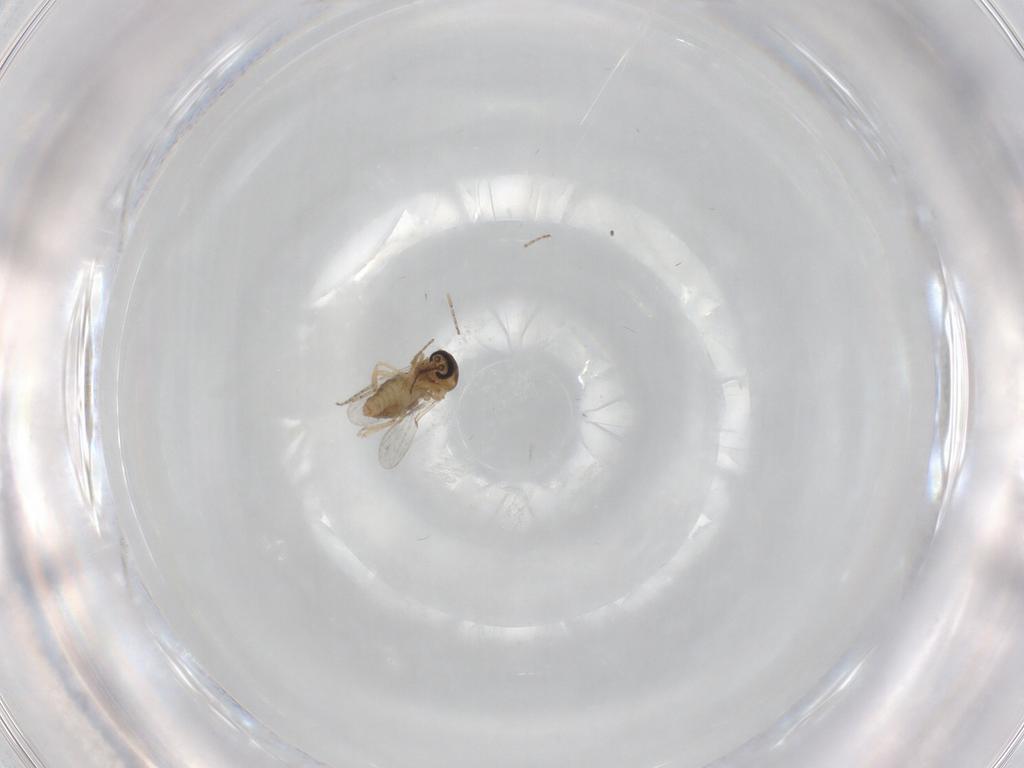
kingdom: Animalia
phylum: Arthropoda
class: Insecta
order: Diptera
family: Ceratopogonidae
